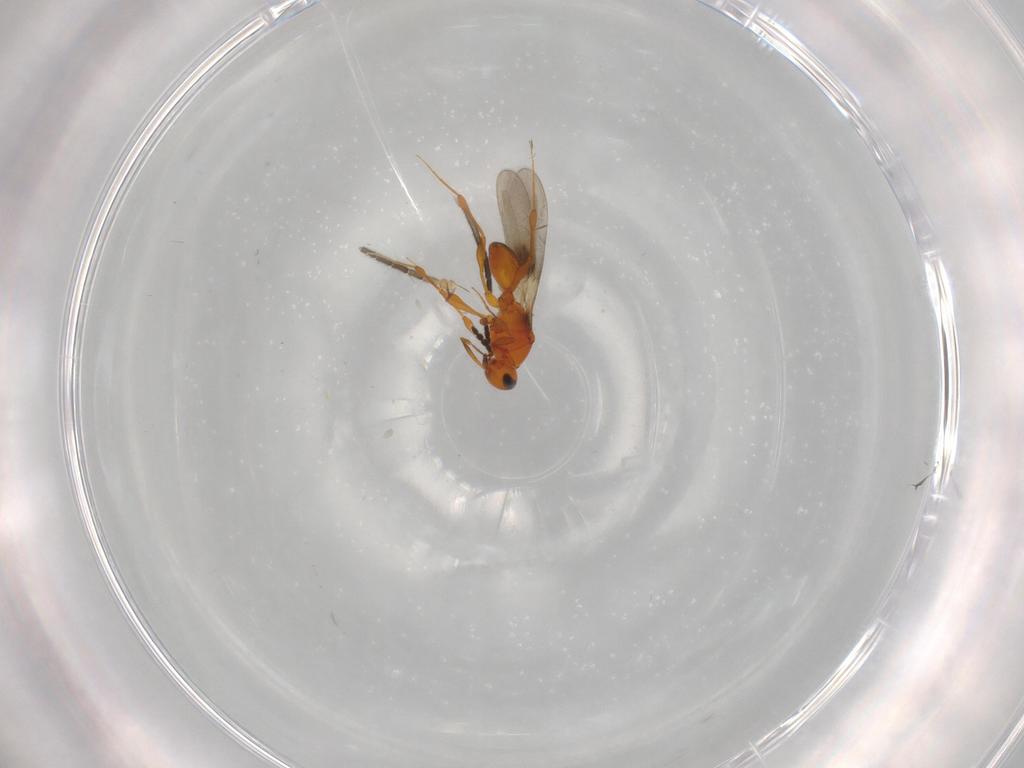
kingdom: Animalia
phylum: Arthropoda
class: Insecta
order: Hymenoptera
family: Platygastridae
